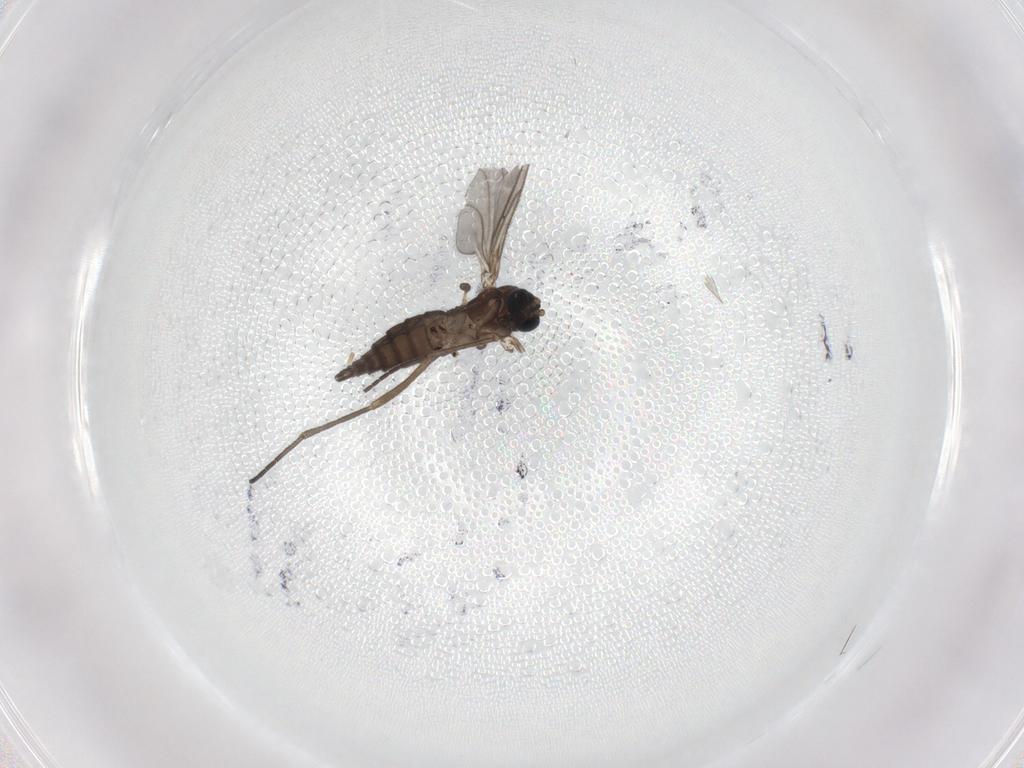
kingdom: Animalia
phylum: Arthropoda
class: Insecta
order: Diptera
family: Sciaridae
